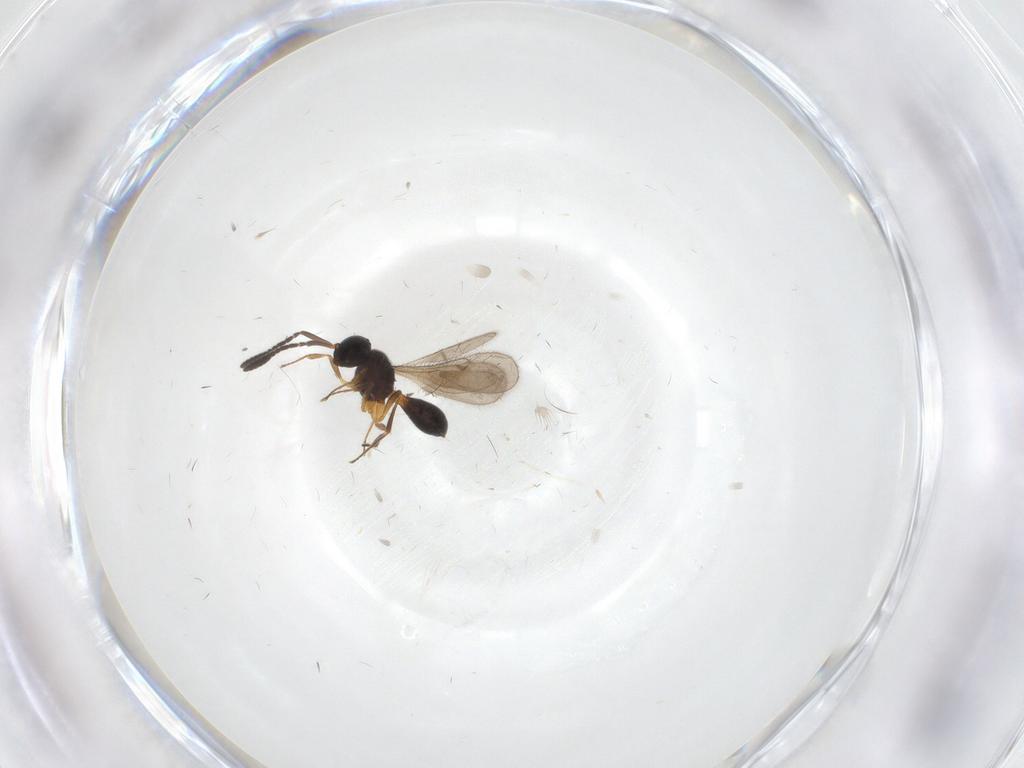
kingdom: Animalia
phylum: Arthropoda
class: Insecta
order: Hymenoptera
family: Scelionidae
